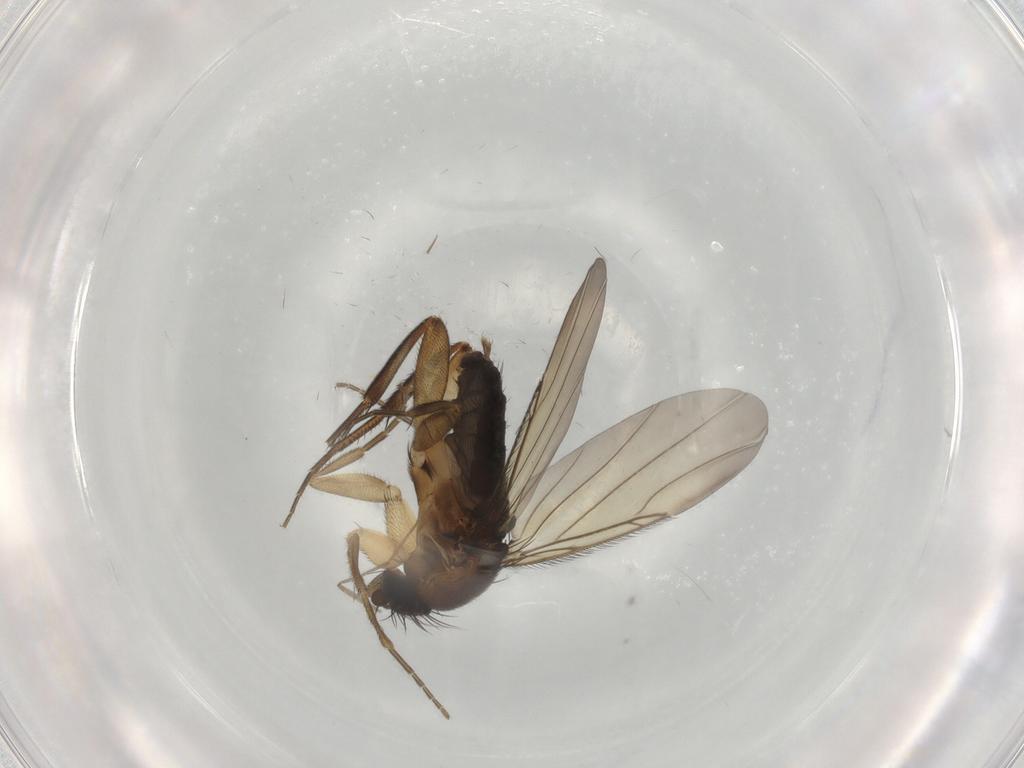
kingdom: Animalia
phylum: Arthropoda
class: Insecta
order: Diptera
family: Phoridae
